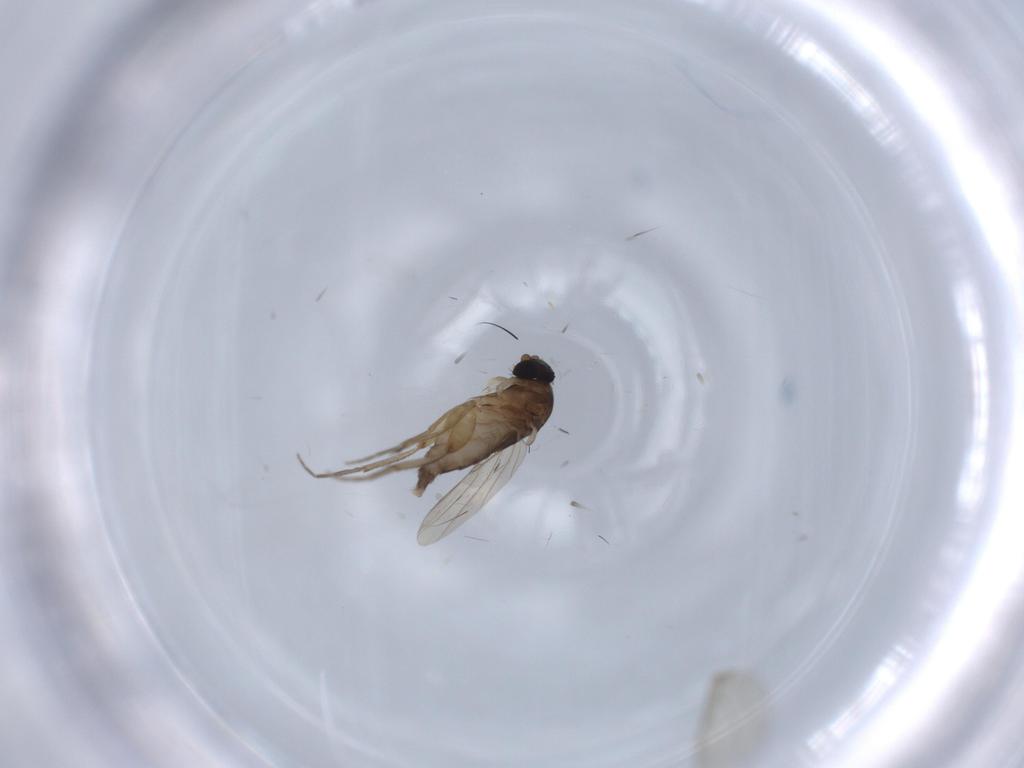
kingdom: Animalia
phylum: Arthropoda
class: Insecta
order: Diptera
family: Phoridae
